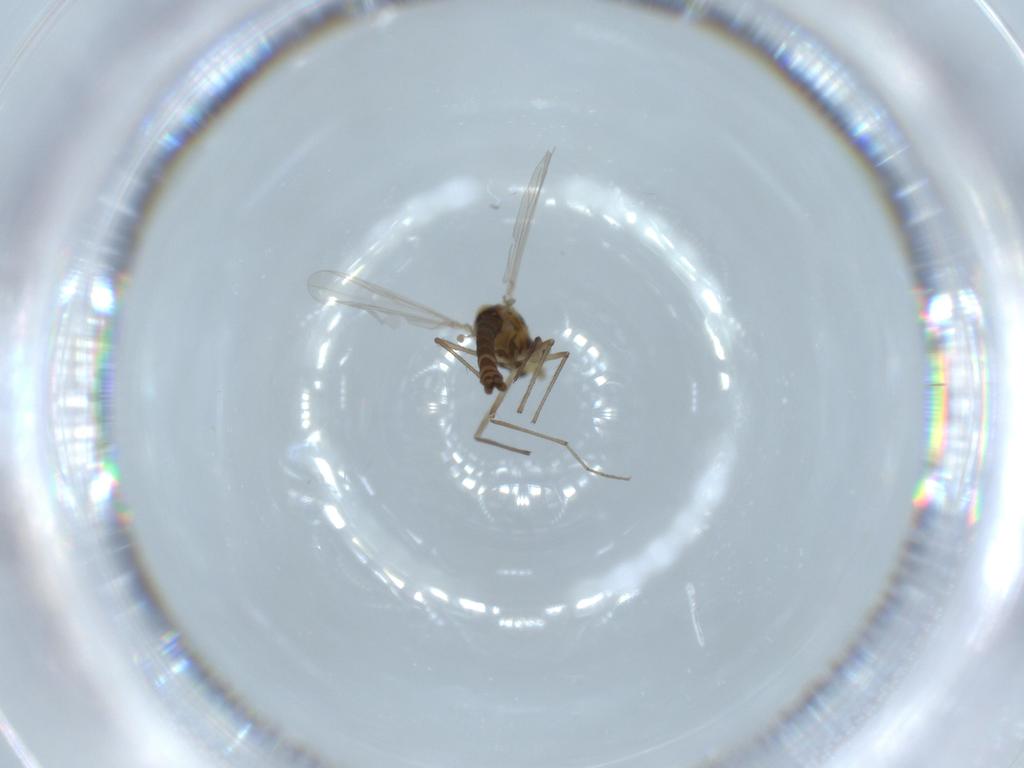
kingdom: Animalia
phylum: Arthropoda
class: Insecta
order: Diptera
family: Chironomidae
